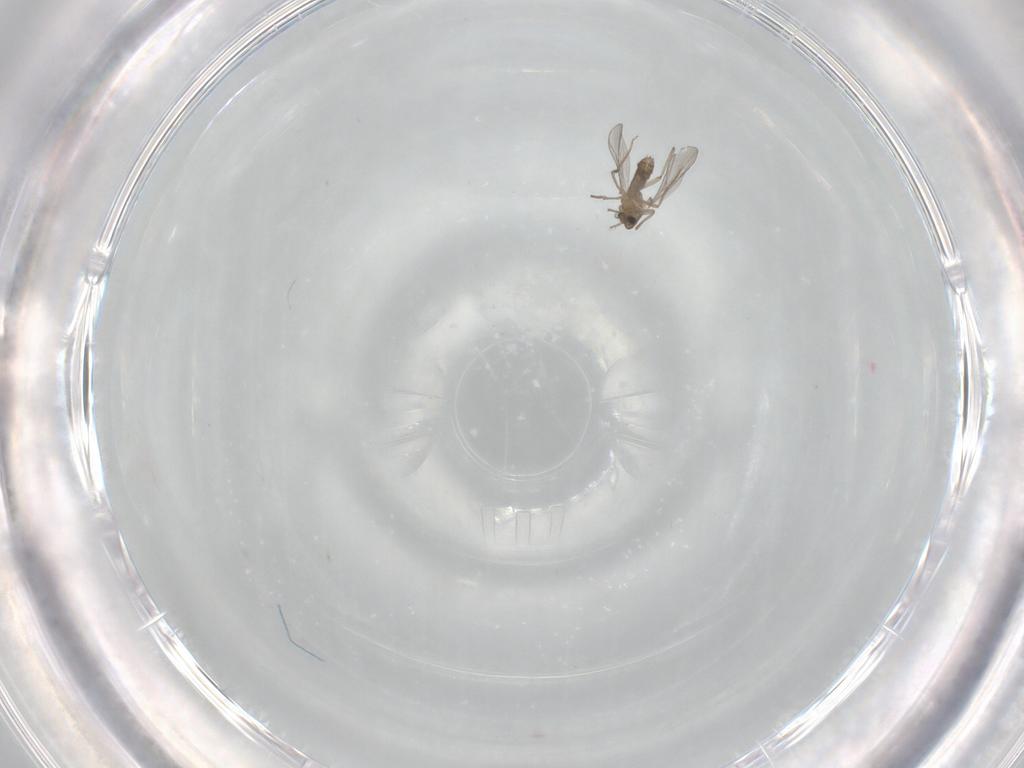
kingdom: Animalia
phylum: Arthropoda
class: Insecta
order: Diptera
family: Chironomidae
